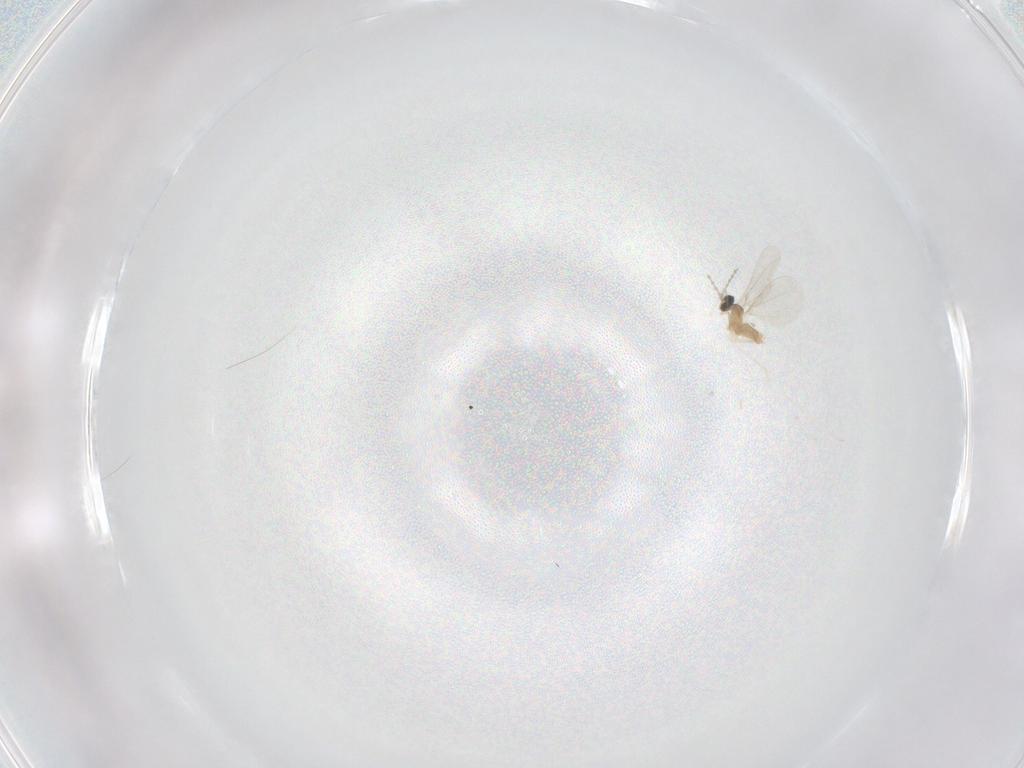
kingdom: Animalia
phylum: Arthropoda
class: Insecta
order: Diptera
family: Cecidomyiidae
